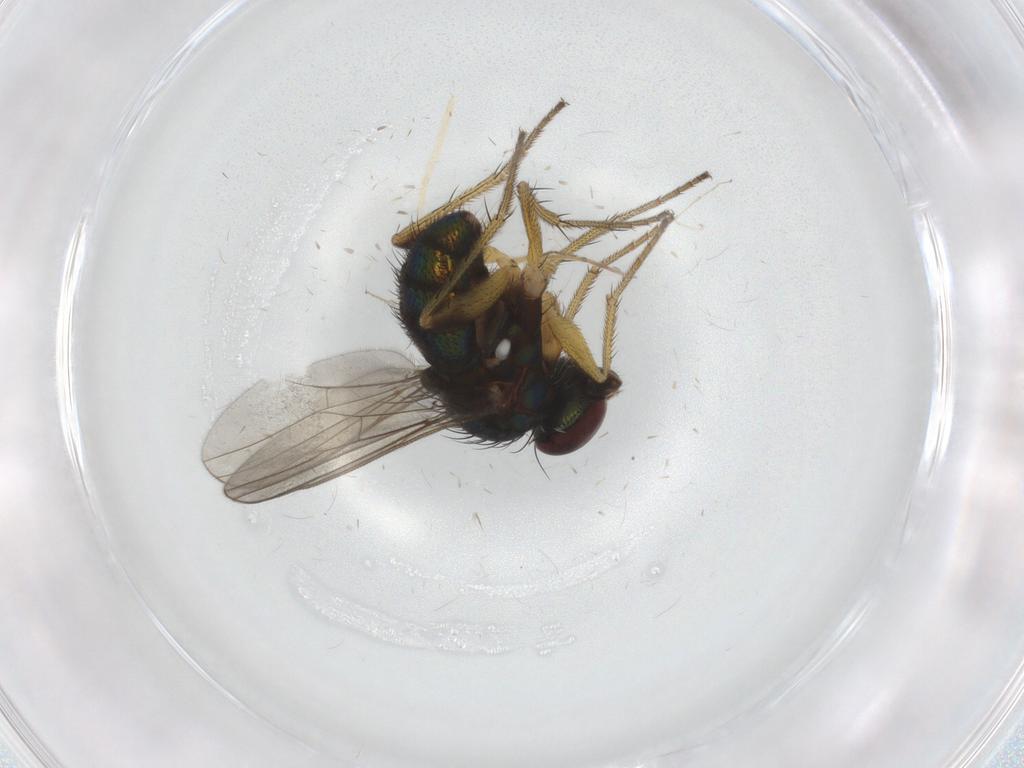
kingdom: Animalia
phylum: Arthropoda
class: Insecta
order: Diptera
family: Dolichopodidae
